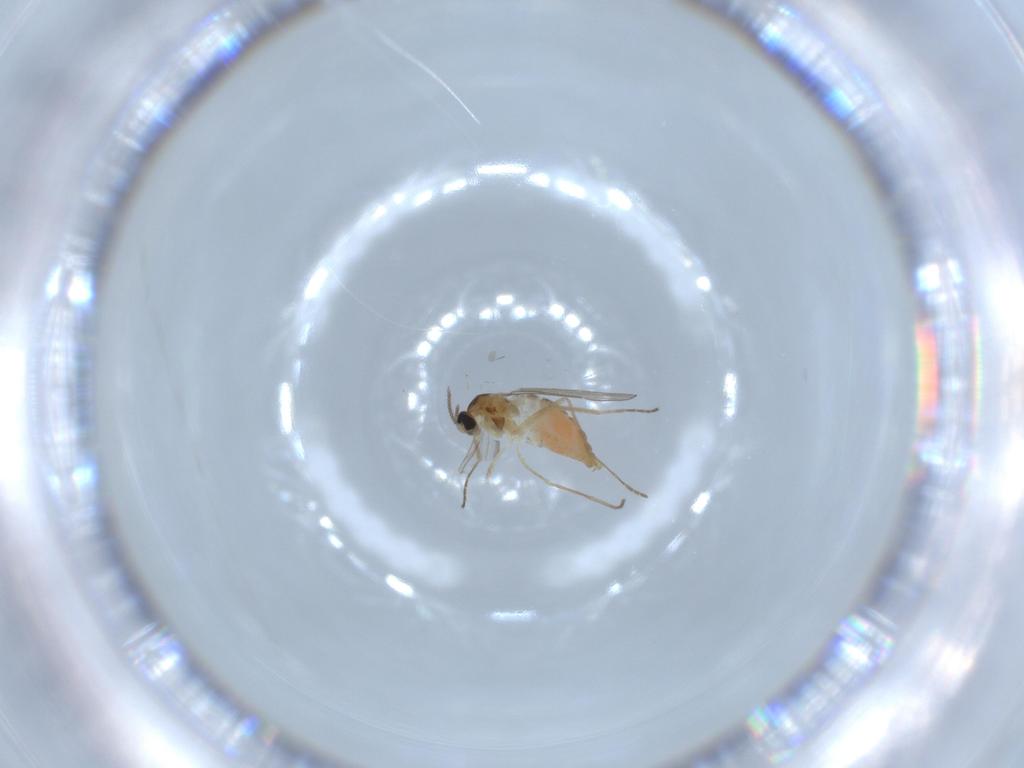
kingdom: Animalia
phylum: Arthropoda
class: Insecta
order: Diptera
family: Cecidomyiidae
